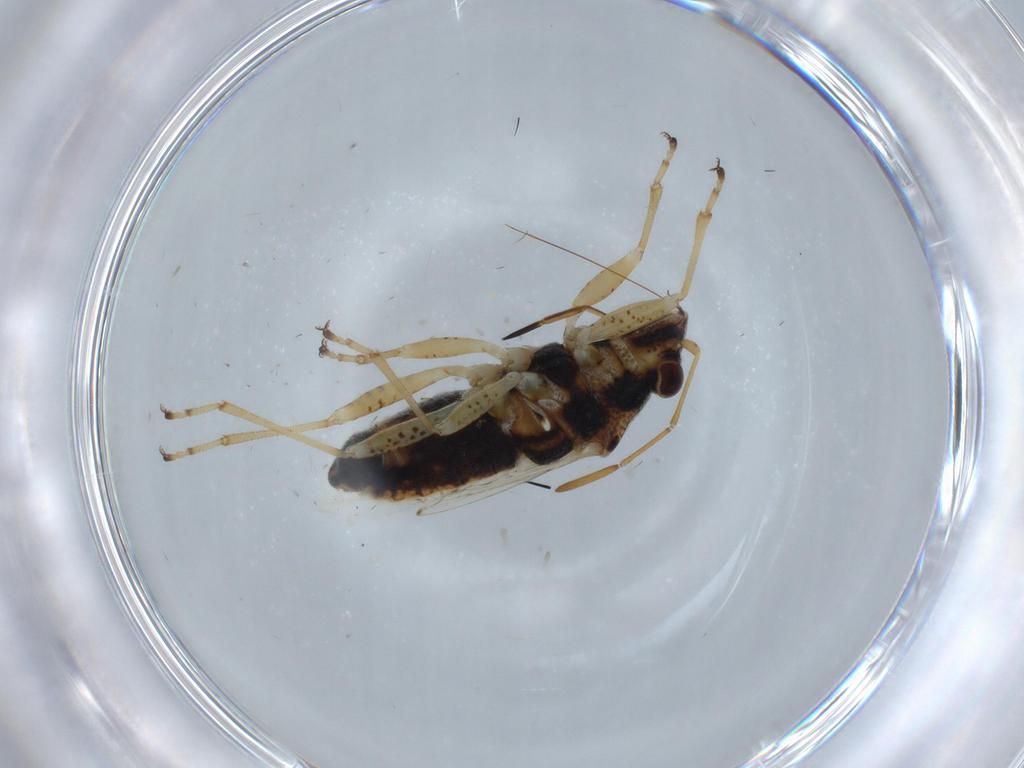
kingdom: Animalia
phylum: Arthropoda
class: Insecta
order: Hemiptera
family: Lygaeidae
